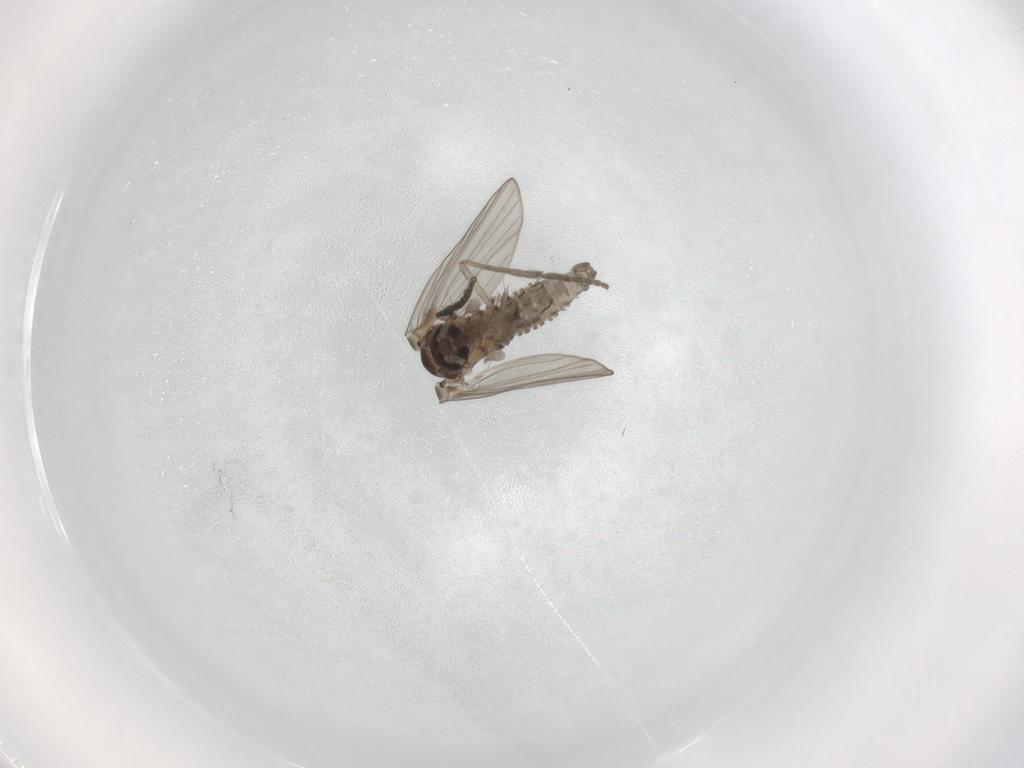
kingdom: Animalia
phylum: Arthropoda
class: Insecta
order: Diptera
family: Psychodidae
